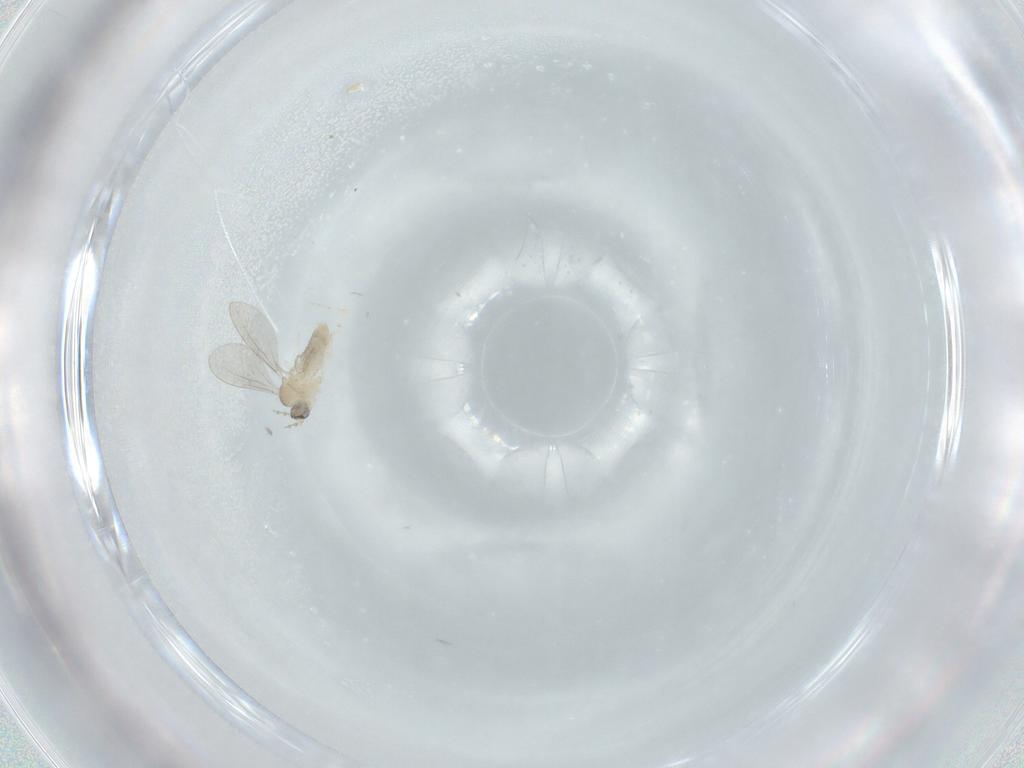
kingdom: Animalia
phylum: Arthropoda
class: Insecta
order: Diptera
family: Chironomidae
